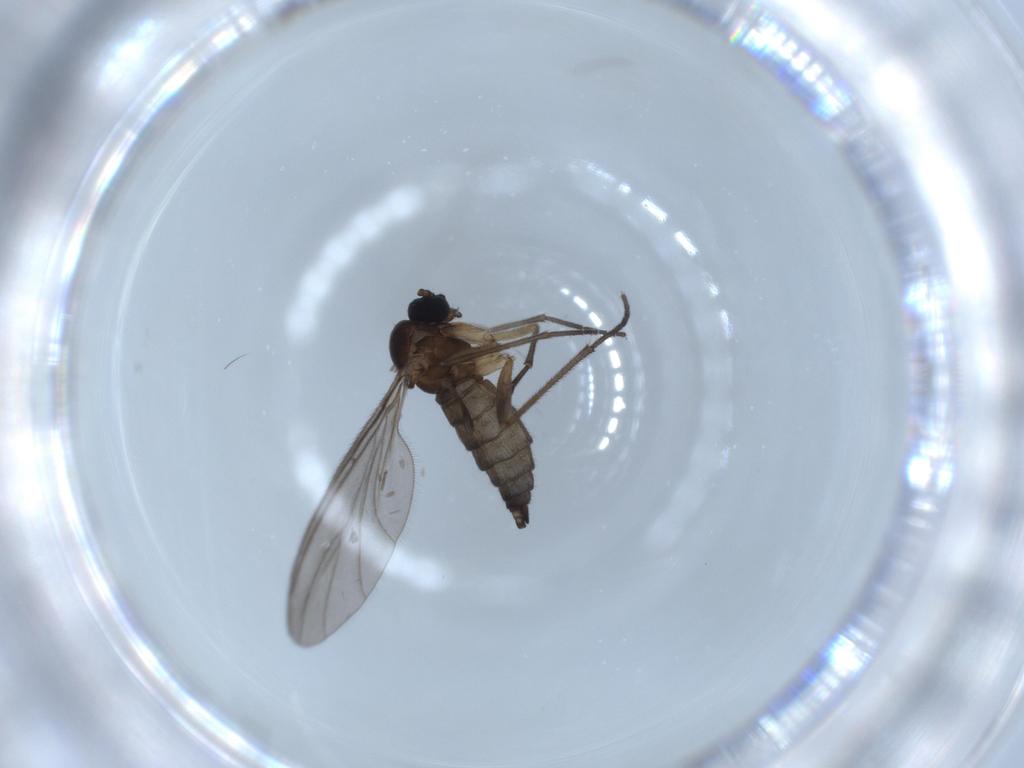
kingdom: Animalia
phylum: Arthropoda
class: Insecta
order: Diptera
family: Sciaridae
